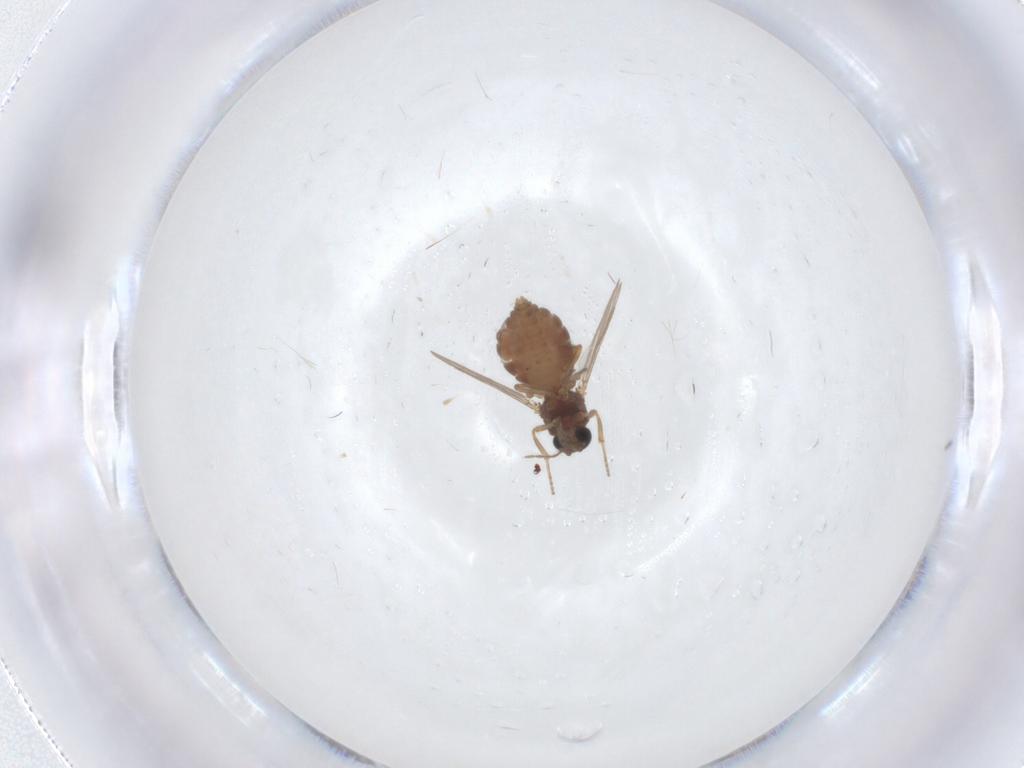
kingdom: Animalia
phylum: Arthropoda
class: Insecta
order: Diptera
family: Ceratopogonidae
